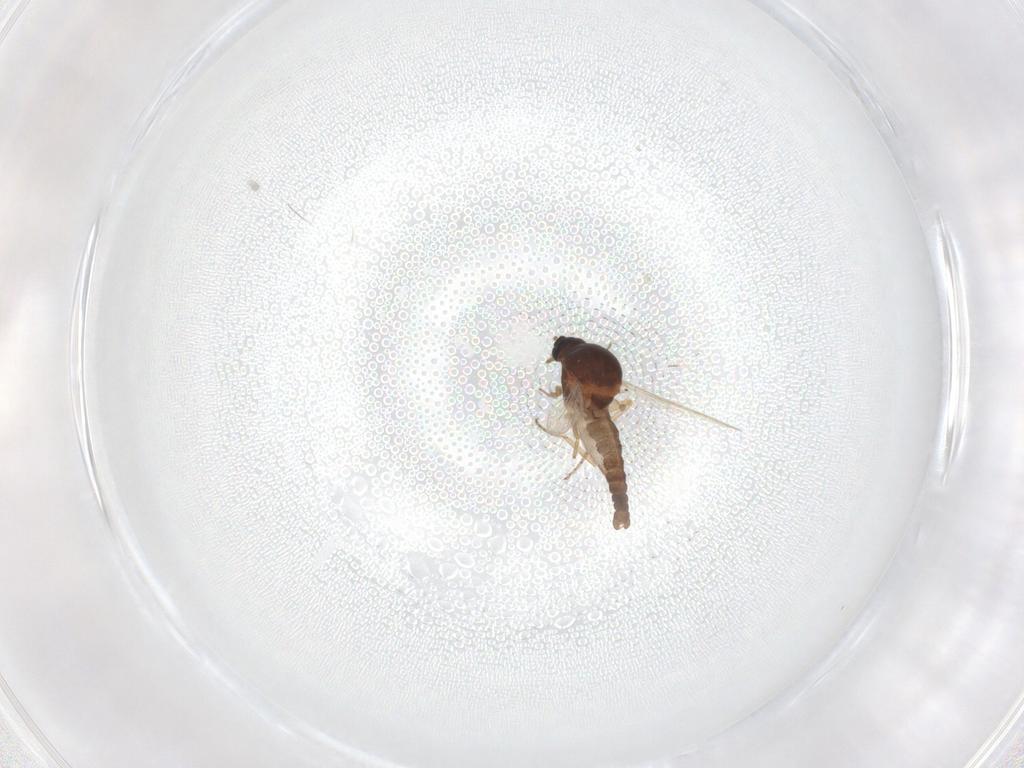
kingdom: Animalia
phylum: Arthropoda
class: Insecta
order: Diptera
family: Ceratopogonidae
